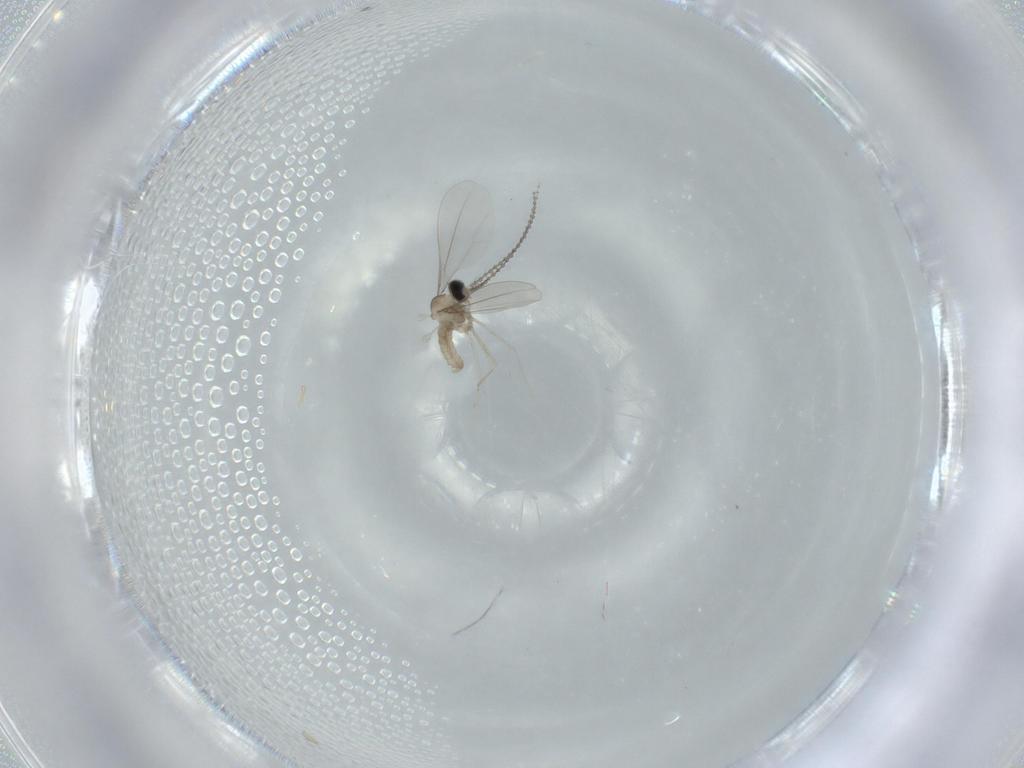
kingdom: Animalia
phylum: Arthropoda
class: Insecta
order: Diptera
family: Cecidomyiidae
